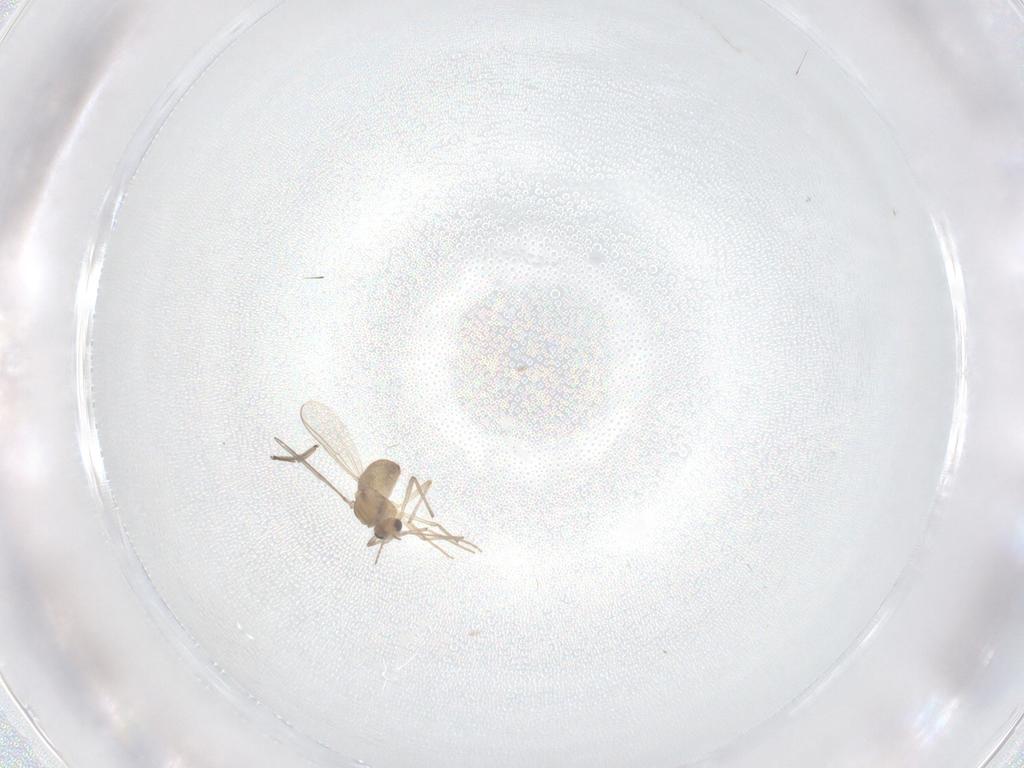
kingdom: Animalia
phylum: Arthropoda
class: Insecta
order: Diptera
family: Chironomidae
